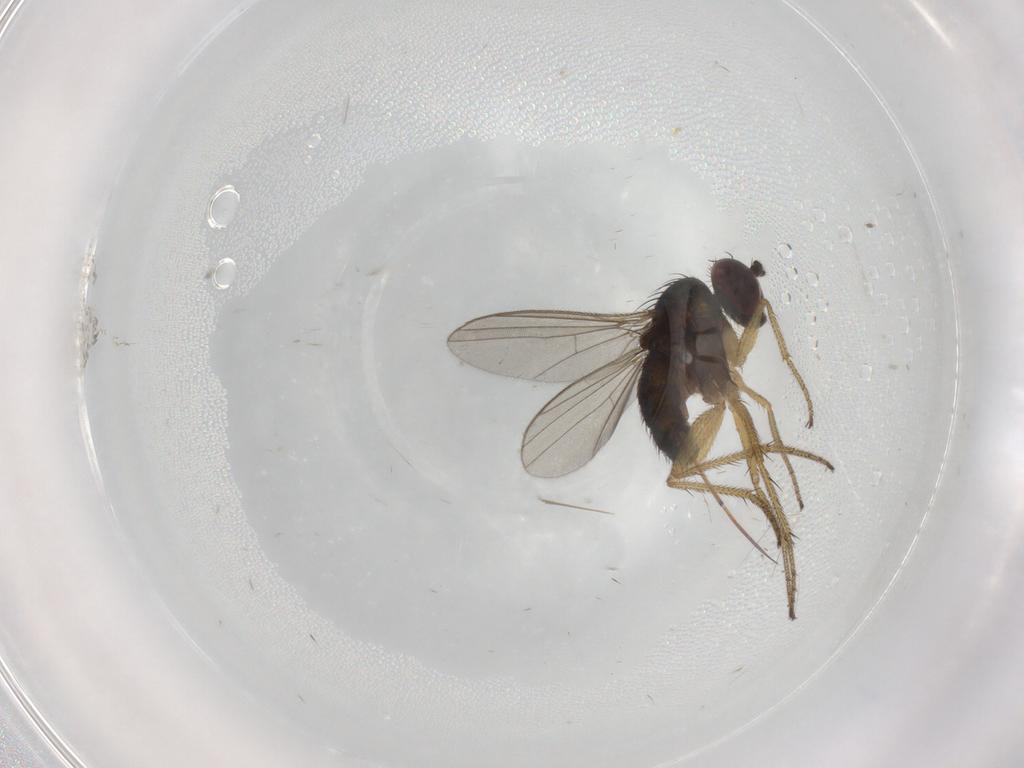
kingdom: Animalia
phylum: Arthropoda
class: Insecta
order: Diptera
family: Dolichopodidae
